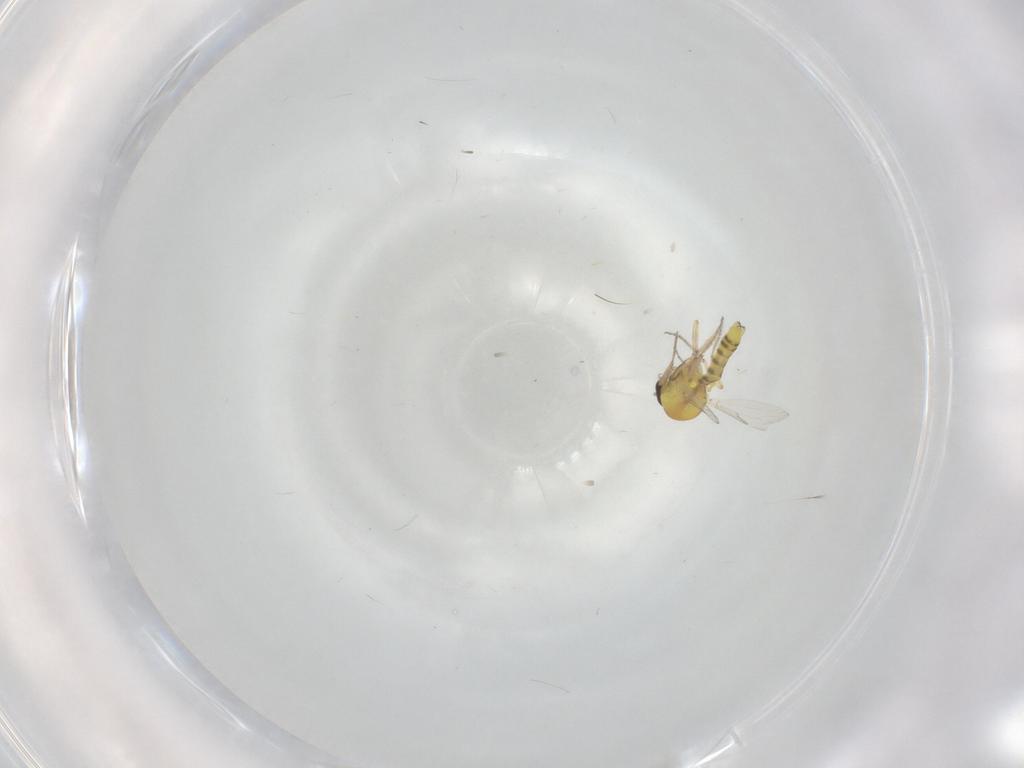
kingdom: Animalia
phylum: Arthropoda
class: Insecta
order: Diptera
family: Ceratopogonidae
